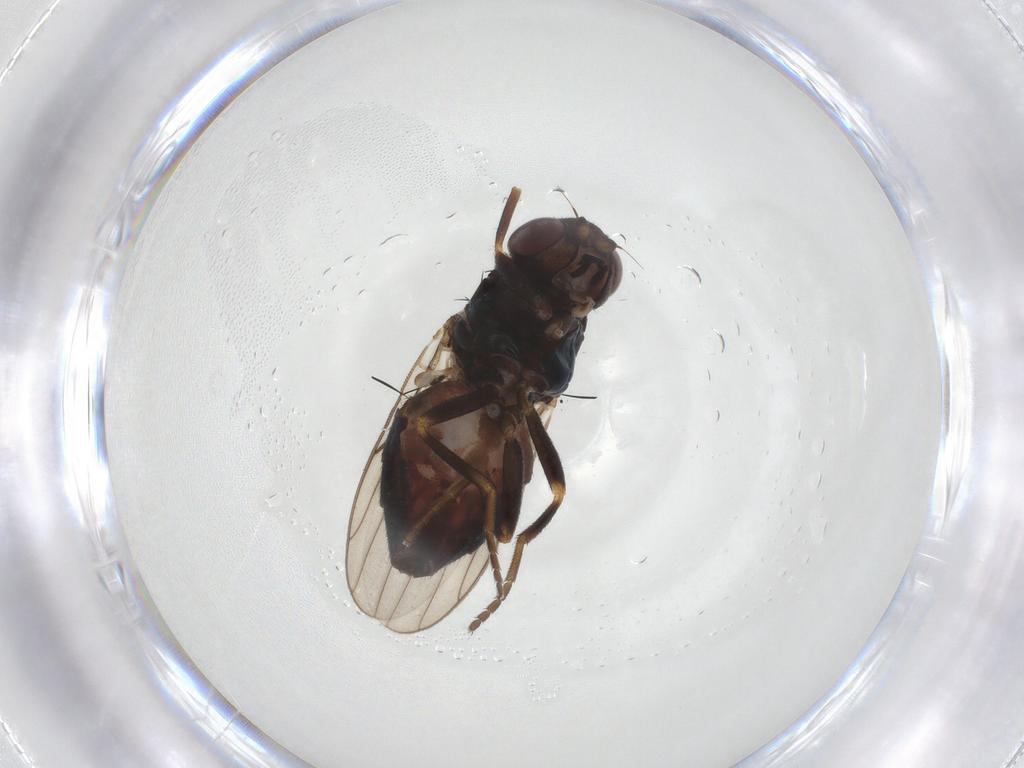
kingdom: Animalia
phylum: Arthropoda
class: Insecta
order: Diptera
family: Chloropidae
